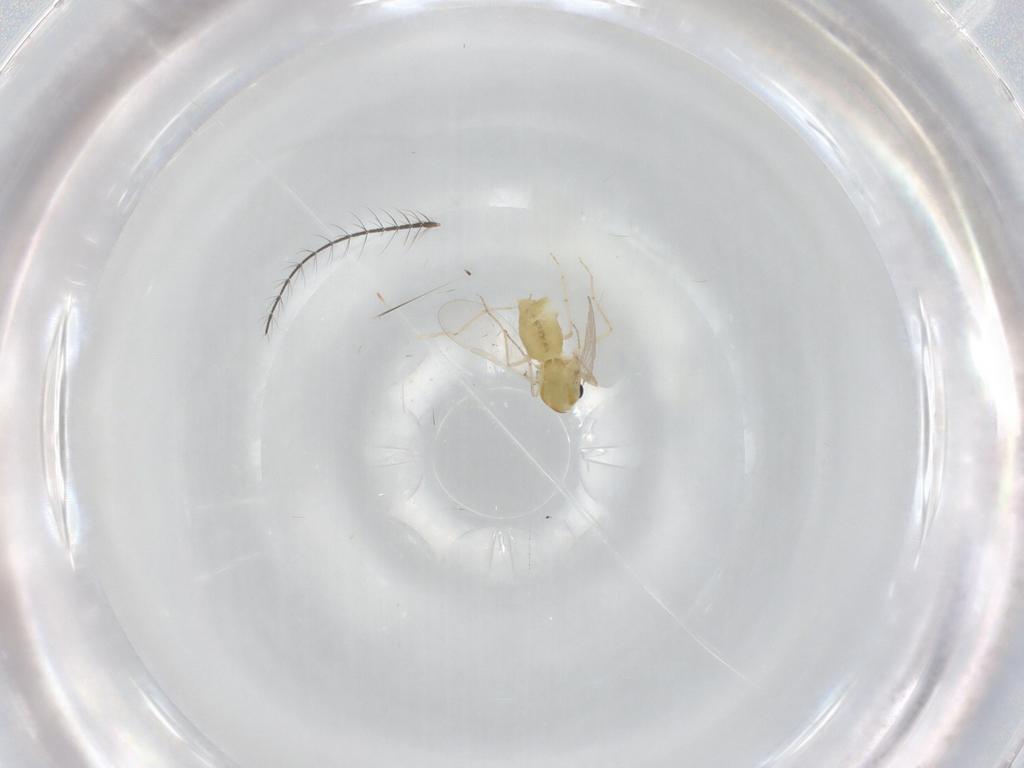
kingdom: Animalia
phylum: Arthropoda
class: Insecta
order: Diptera
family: Chironomidae
